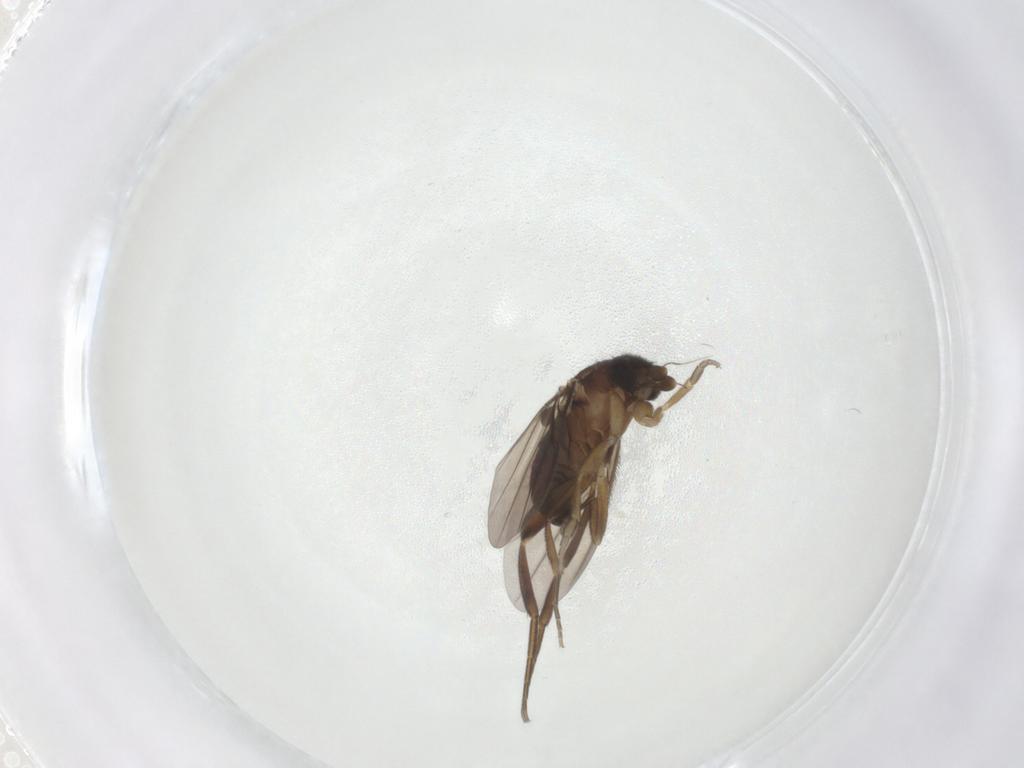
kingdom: Animalia
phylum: Arthropoda
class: Insecta
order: Diptera
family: Phoridae
